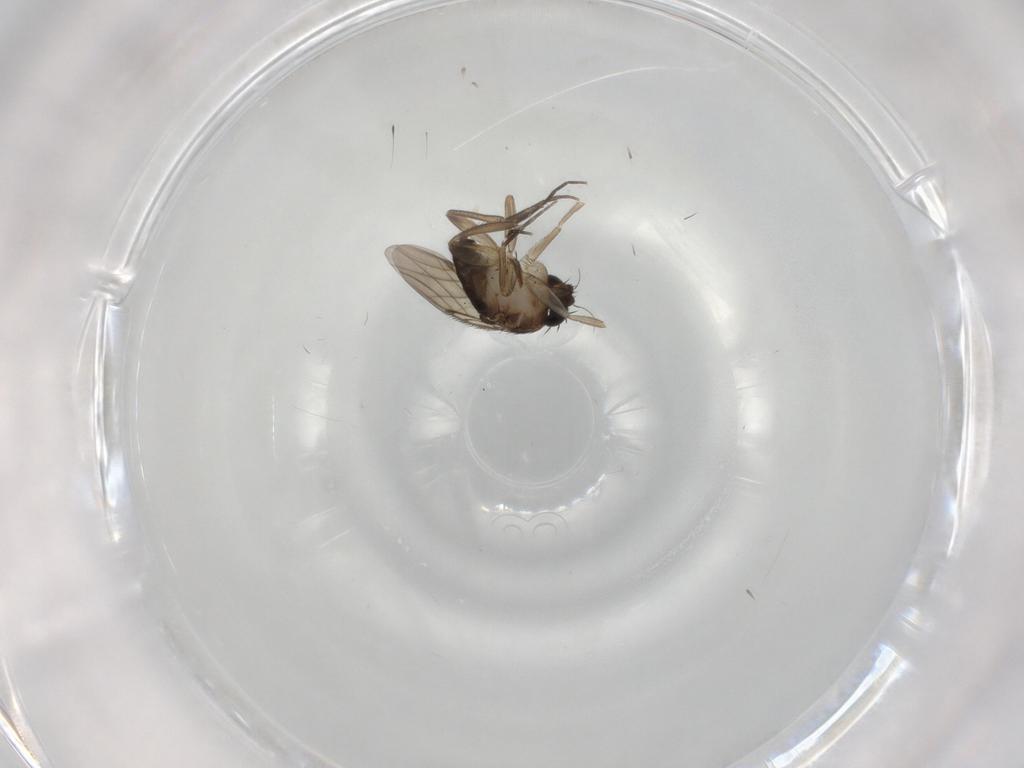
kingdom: Animalia
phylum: Arthropoda
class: Insecta
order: Diptera
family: Phoridae
